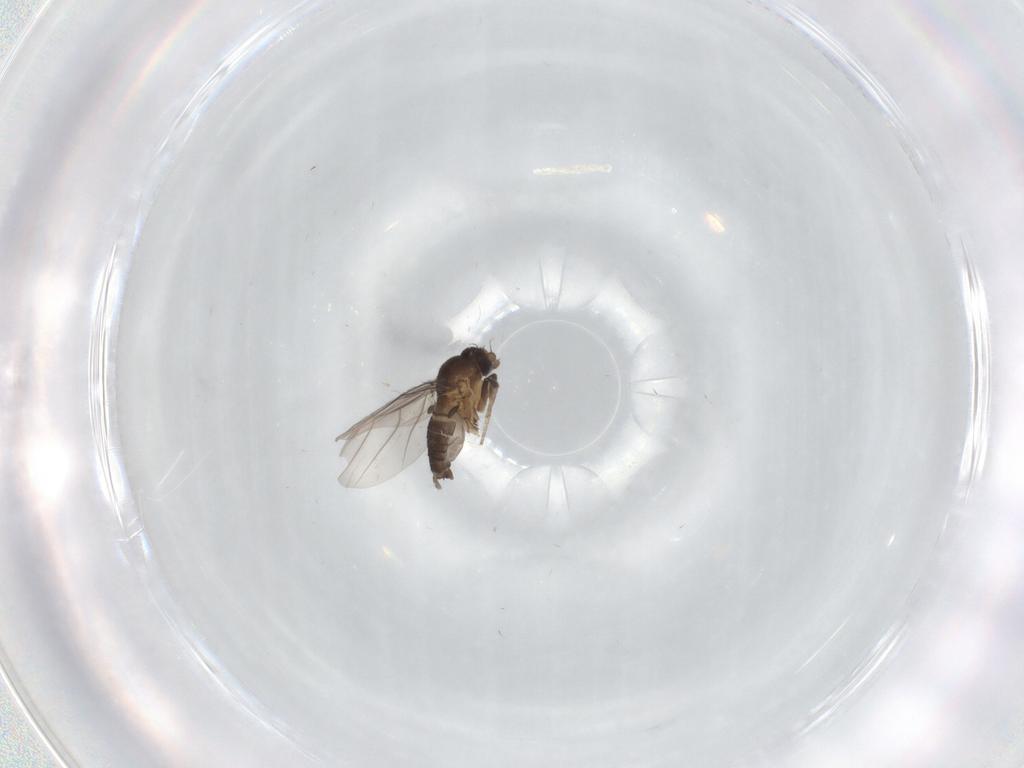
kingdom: Animalia
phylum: Arthropoda
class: Insecta
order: Diptera
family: Phoridae
